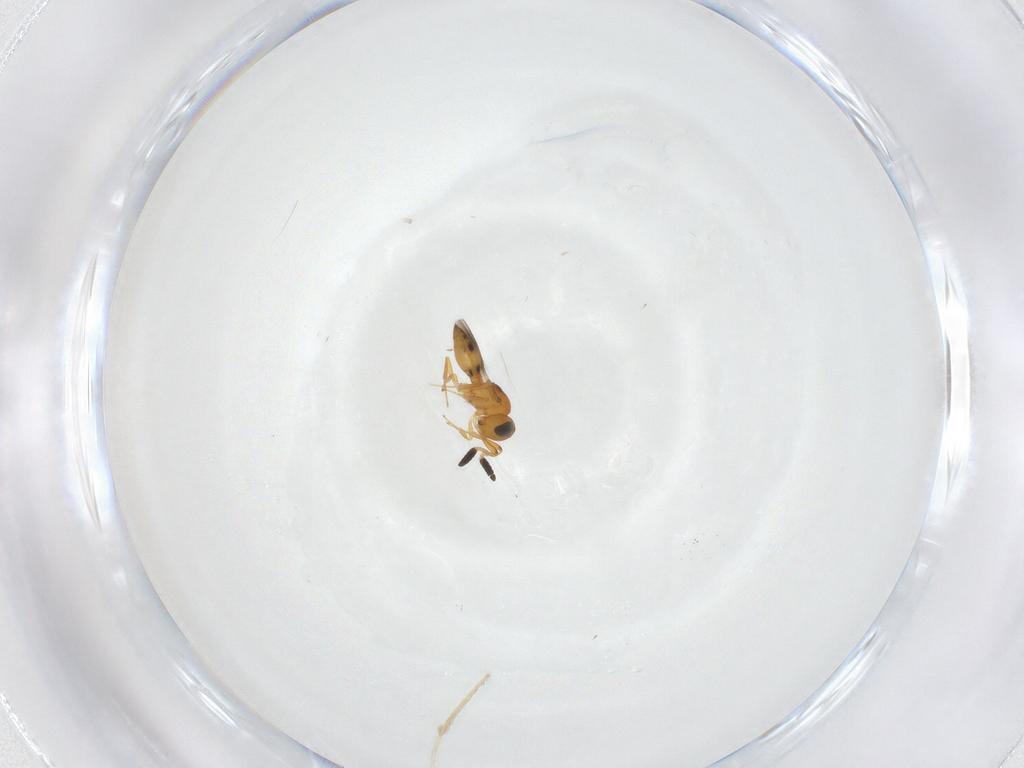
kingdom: Animalia
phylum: Arthropoda
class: Insecta
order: Hymenoptera
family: Scelionidae
